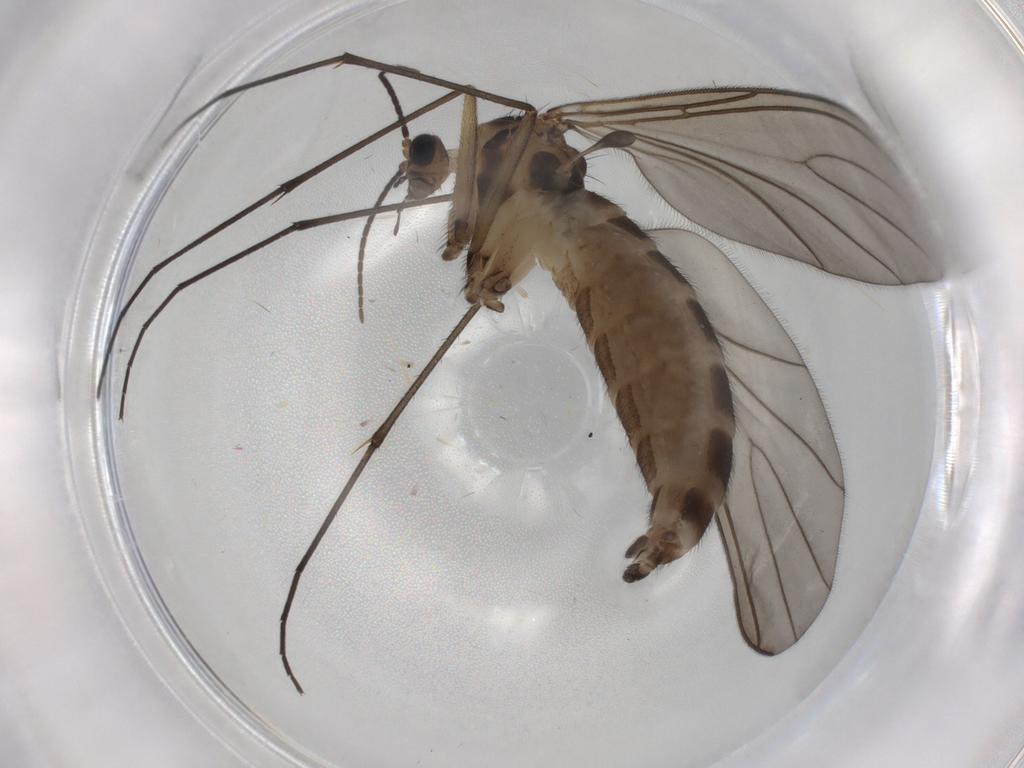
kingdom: Animalia
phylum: Arthropoda
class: Insecta
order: Diptera
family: Sciaridae
